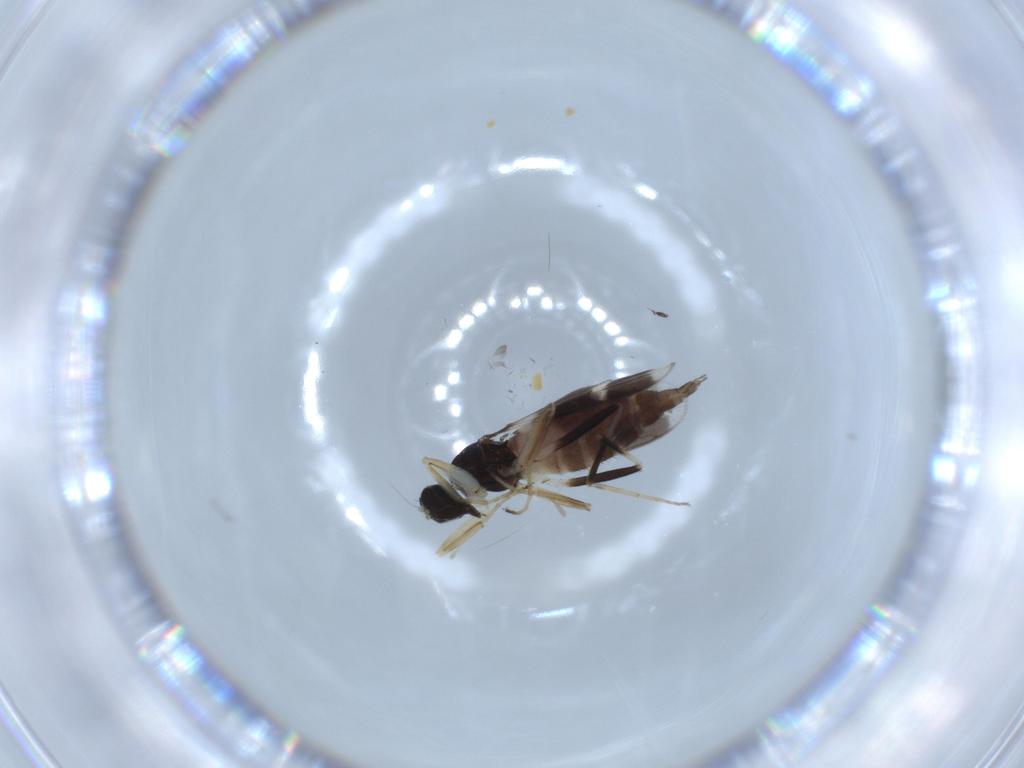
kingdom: Animalia
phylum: Arthropoda
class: Insecta
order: Diptera
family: Hybotidae
